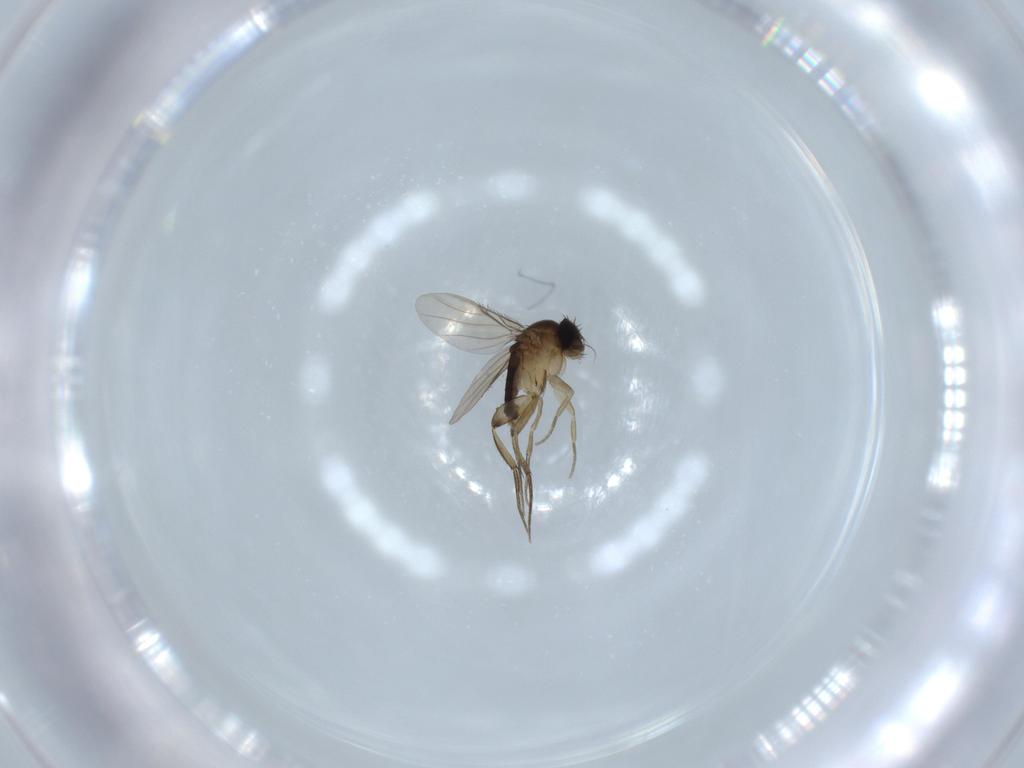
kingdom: Animalia
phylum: Arthropoda
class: Insecta
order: Diptera
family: Phoridae
